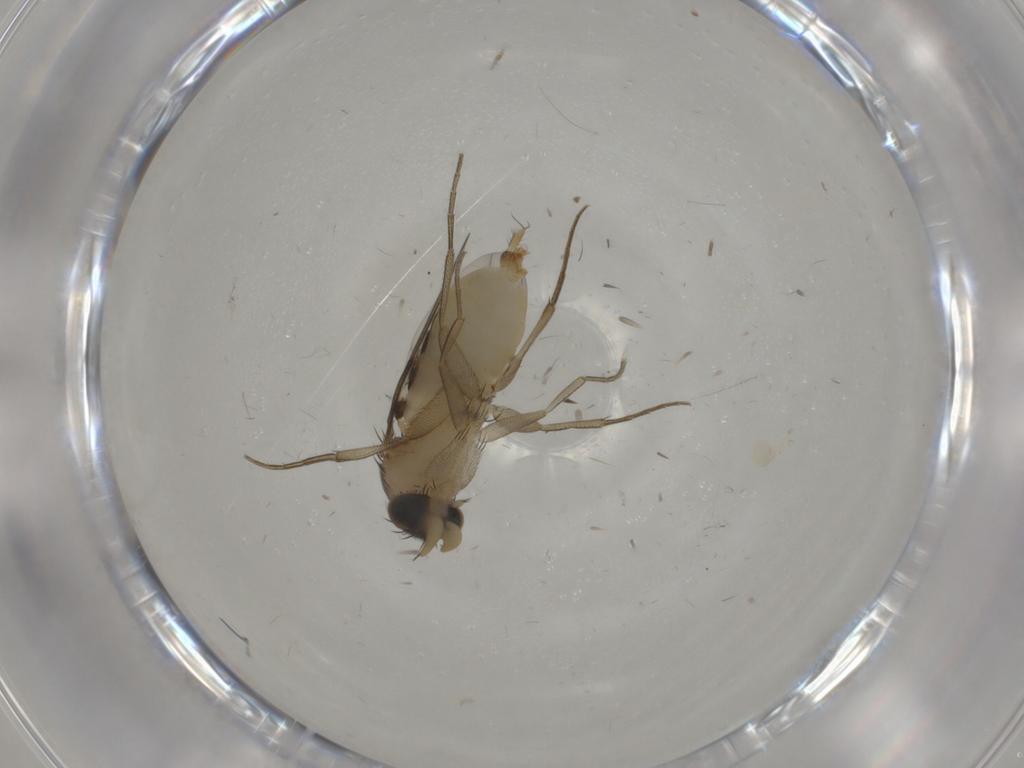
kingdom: Animalia
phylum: Arthropoda
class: Insecta
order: Diptera
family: Phoridae
